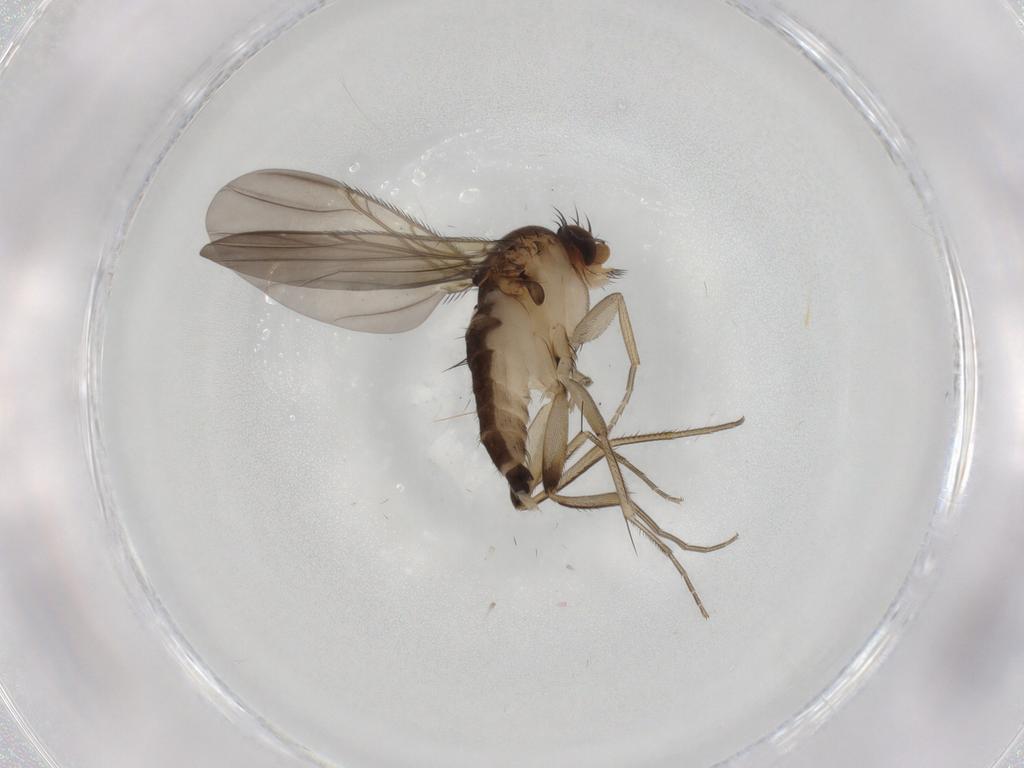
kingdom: Animalia
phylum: Arthropoda
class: Insecta
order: Diptera
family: Phoridae
